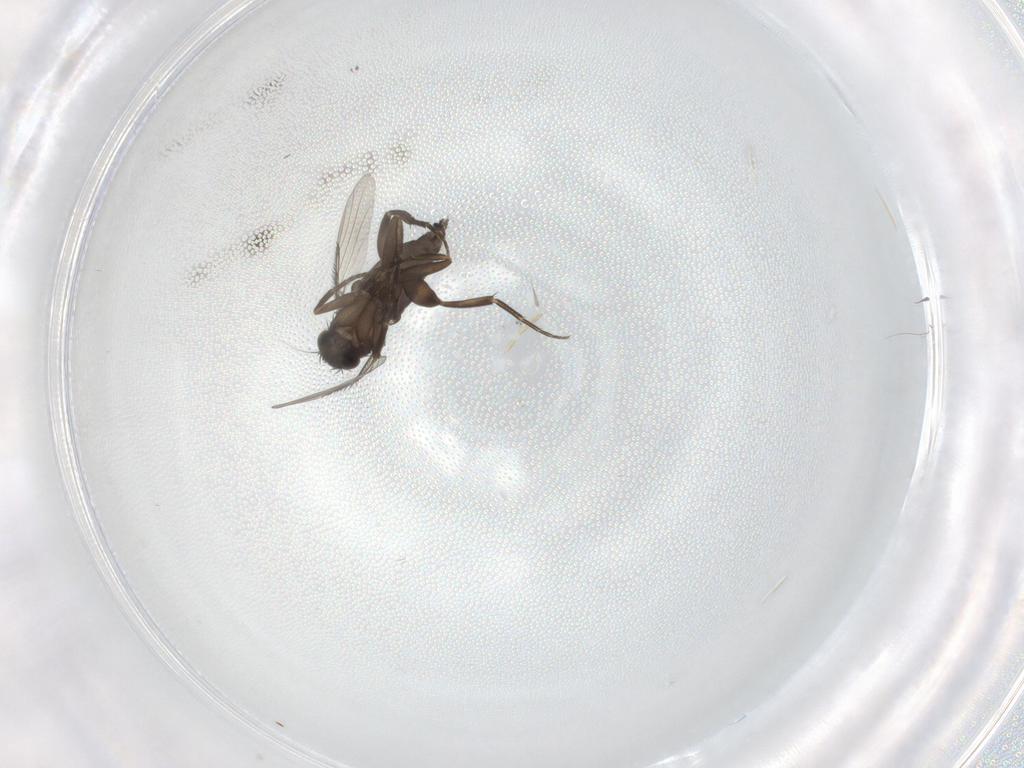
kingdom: Animalia
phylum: Arthropoda
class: Insecta
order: Diptera
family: Phoridae
